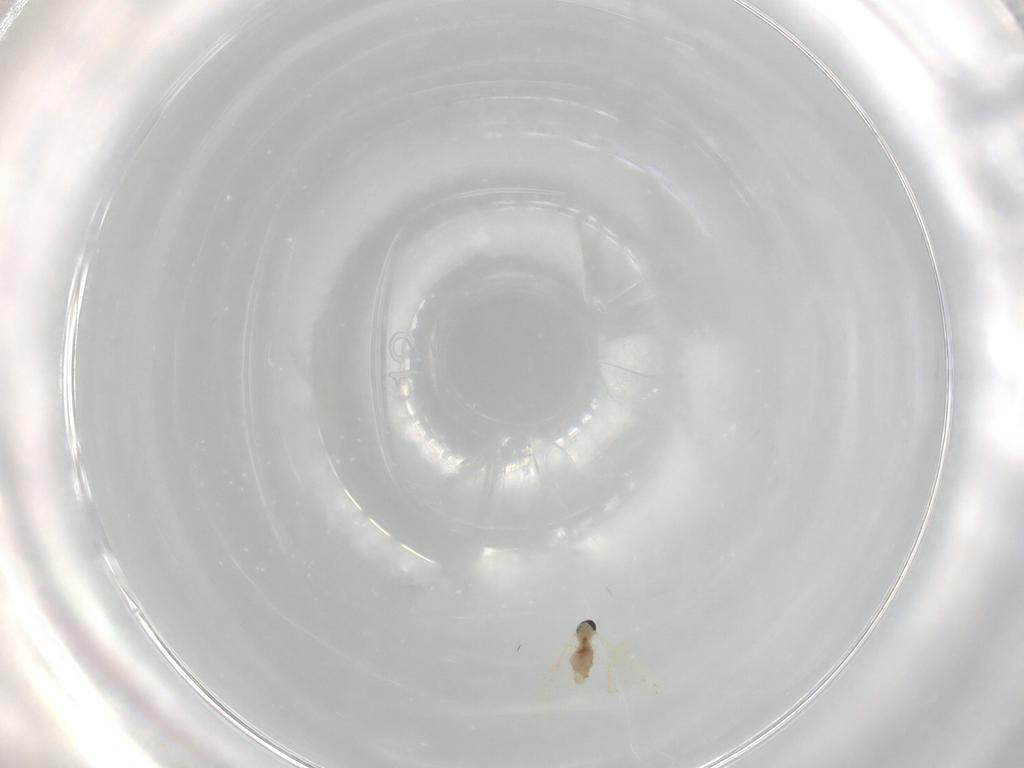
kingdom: Animalia
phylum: Arthropoda
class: Insecta
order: Diptera
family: Cecidomyiidae
